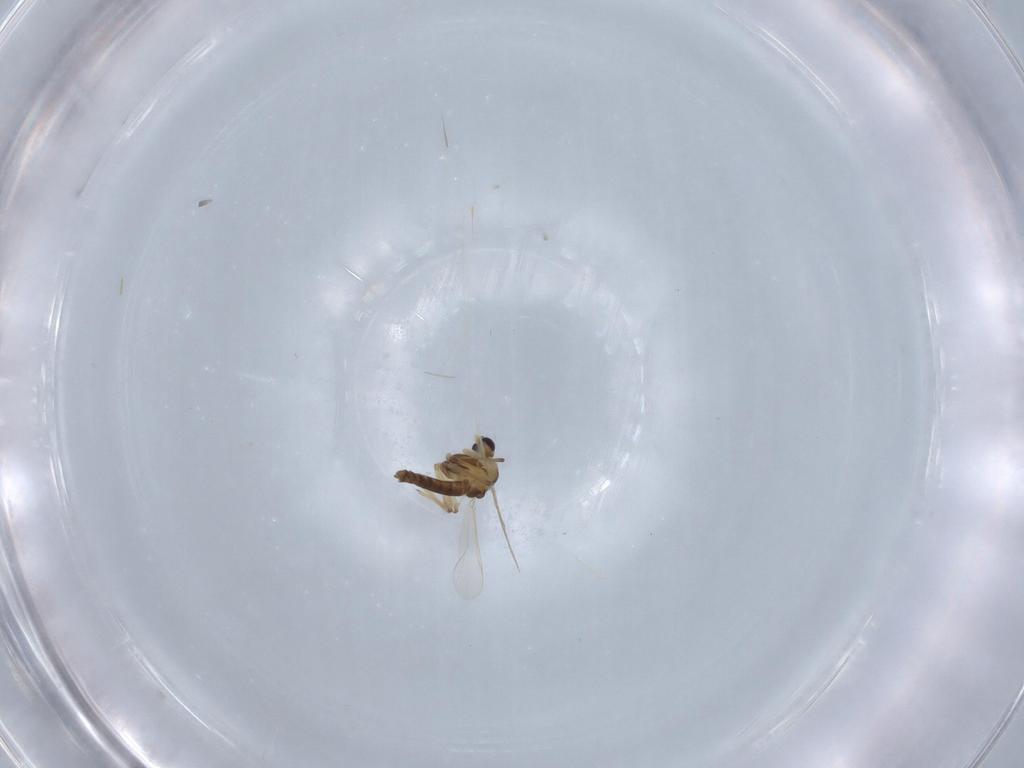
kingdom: Animalia
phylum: Arthropoda
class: Insecta
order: Diptera
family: Chironomidae
